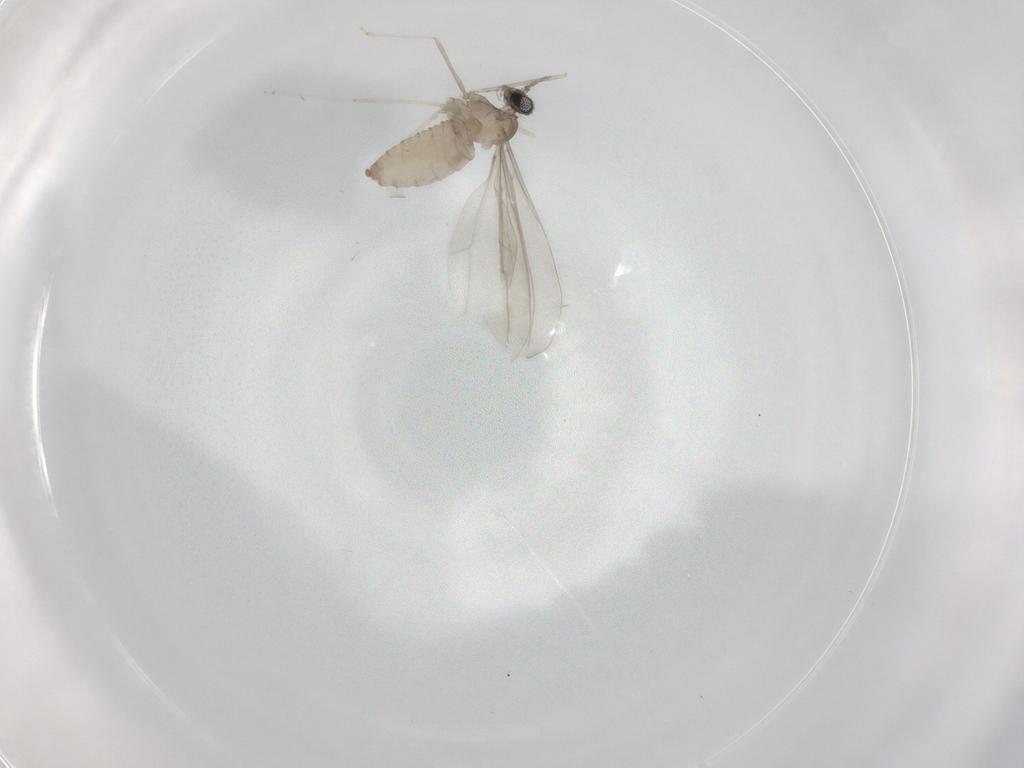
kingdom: Animalia
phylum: Arthropoda
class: Insecta
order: Diptera
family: Cecidomyiidae
